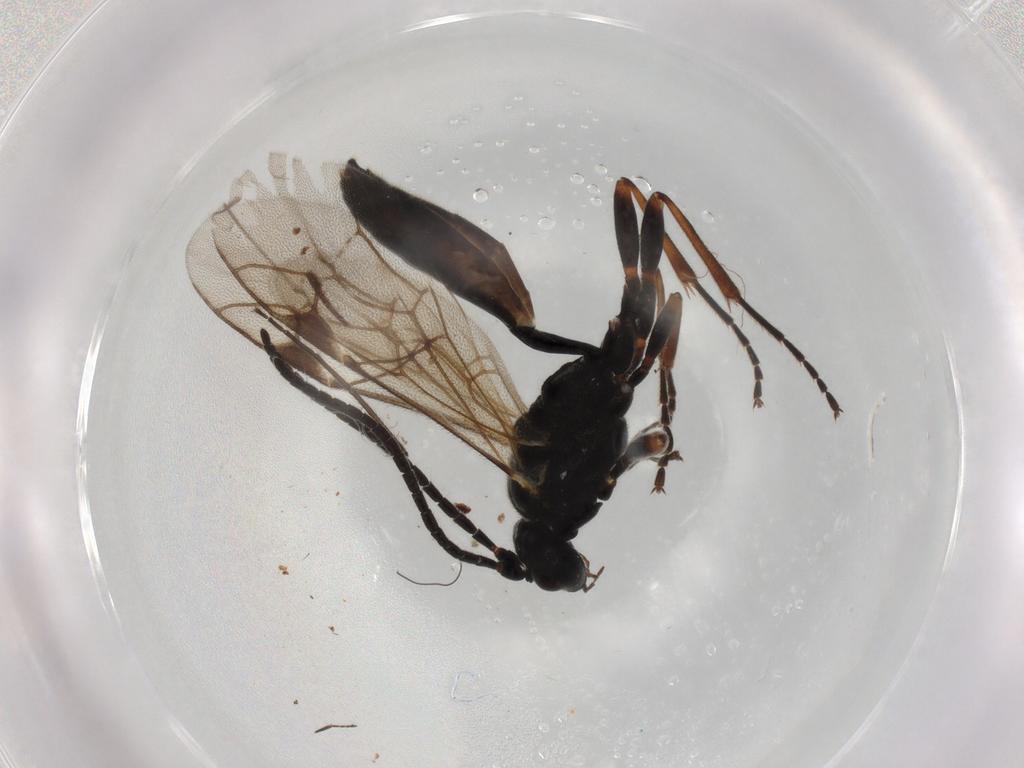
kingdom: Animalia
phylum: Arthropoda
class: Insecta
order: Hymenoptera
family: Ichneumonidae
